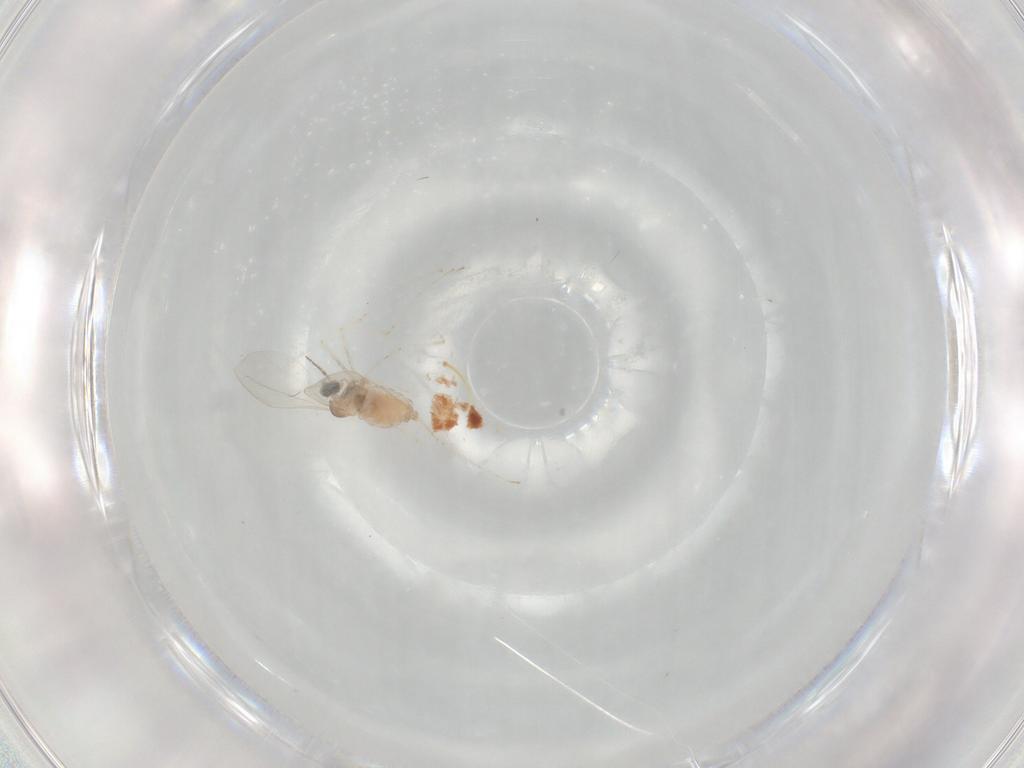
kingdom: Animalia
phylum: Arthropoda
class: Insecta
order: Diptera
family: Cecidomyiidae
